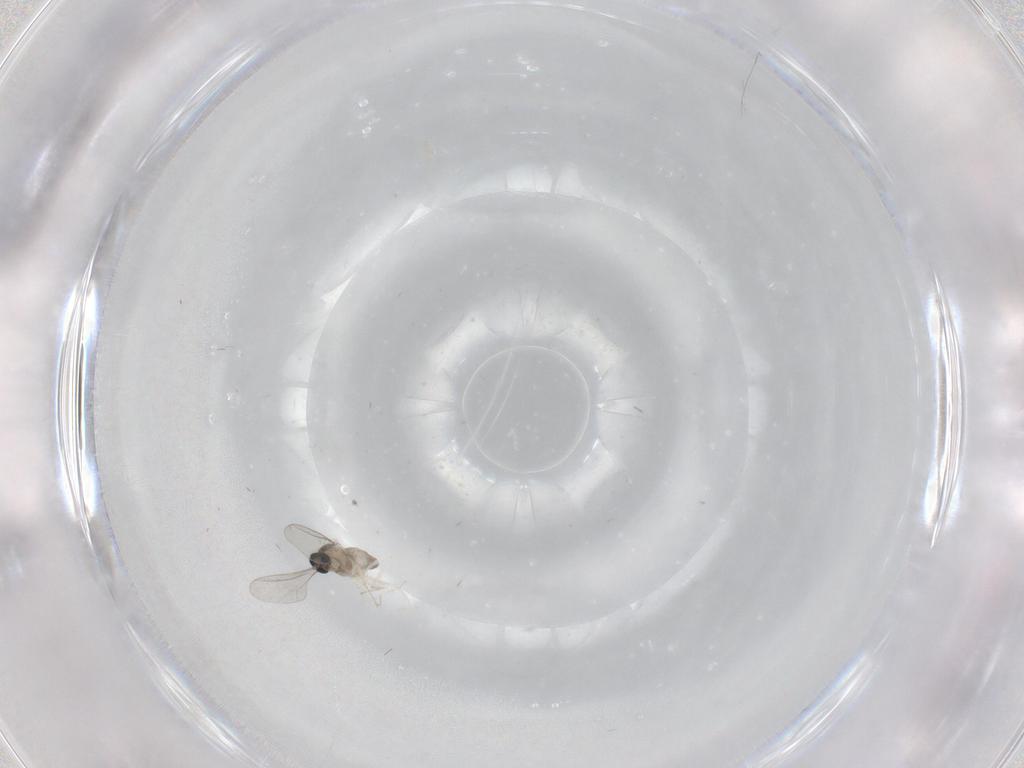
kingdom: Animalia
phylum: Arthropoda
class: Insecta
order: Diptera
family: Cecidomyiidae
